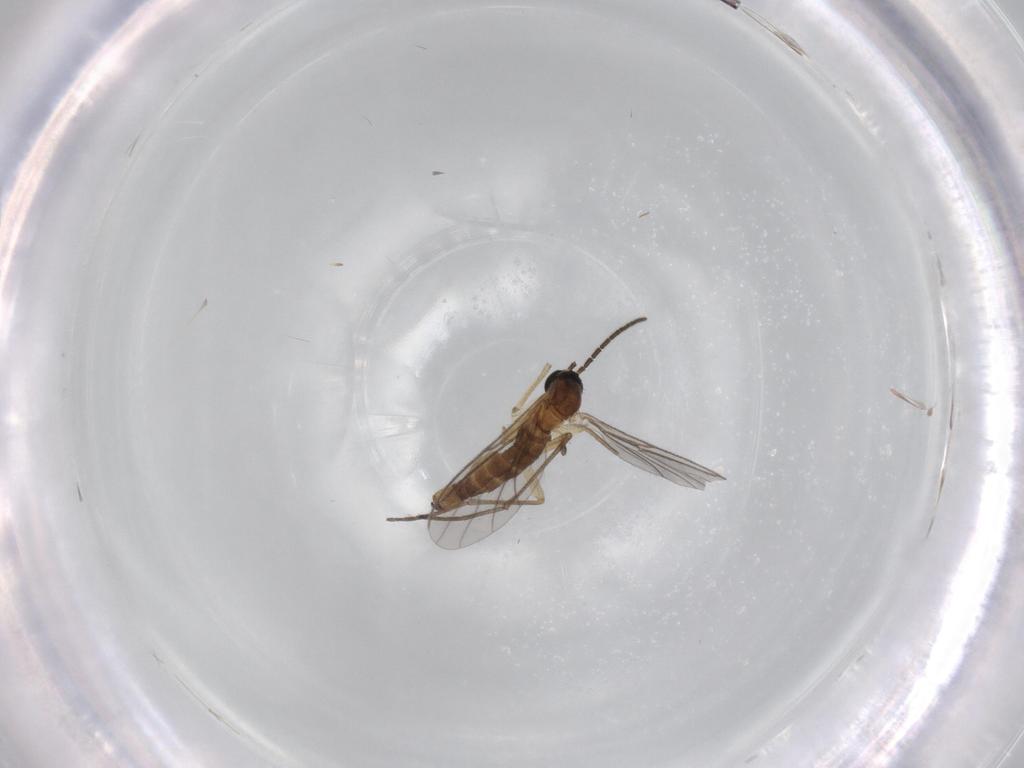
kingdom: Animalia
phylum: Arthropoda
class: Insecta
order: Diptera
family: Sciaridae
